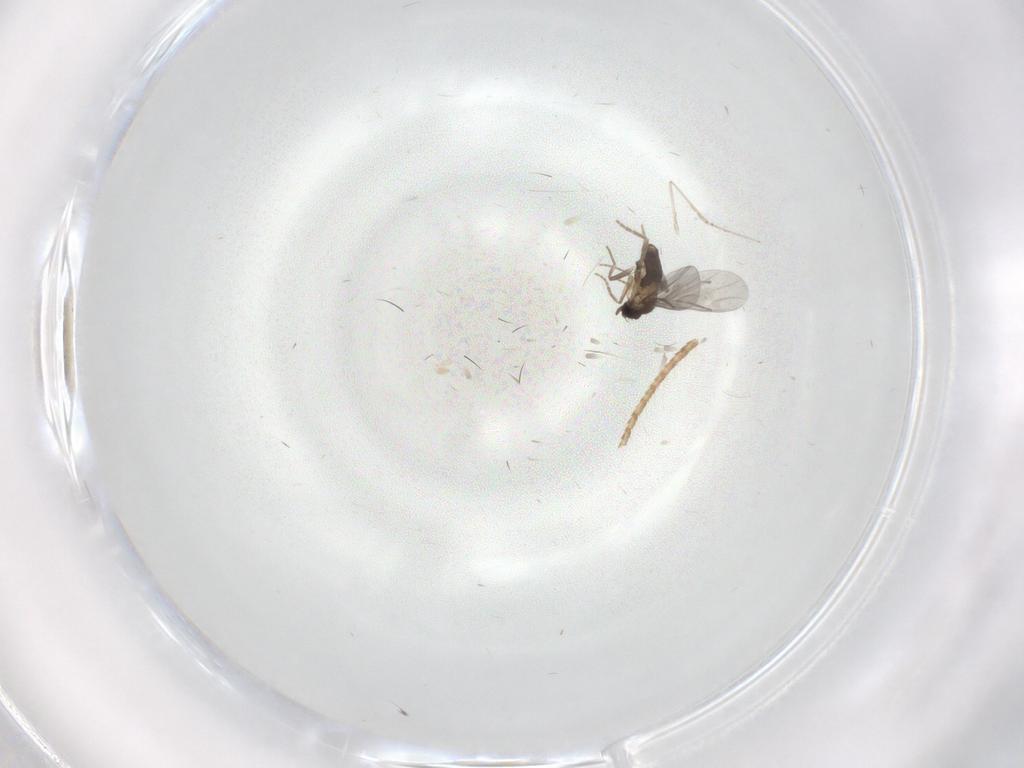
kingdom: Animalia
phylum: Arthropoda
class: Insecta
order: Diptera
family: Cecidomyiidae
